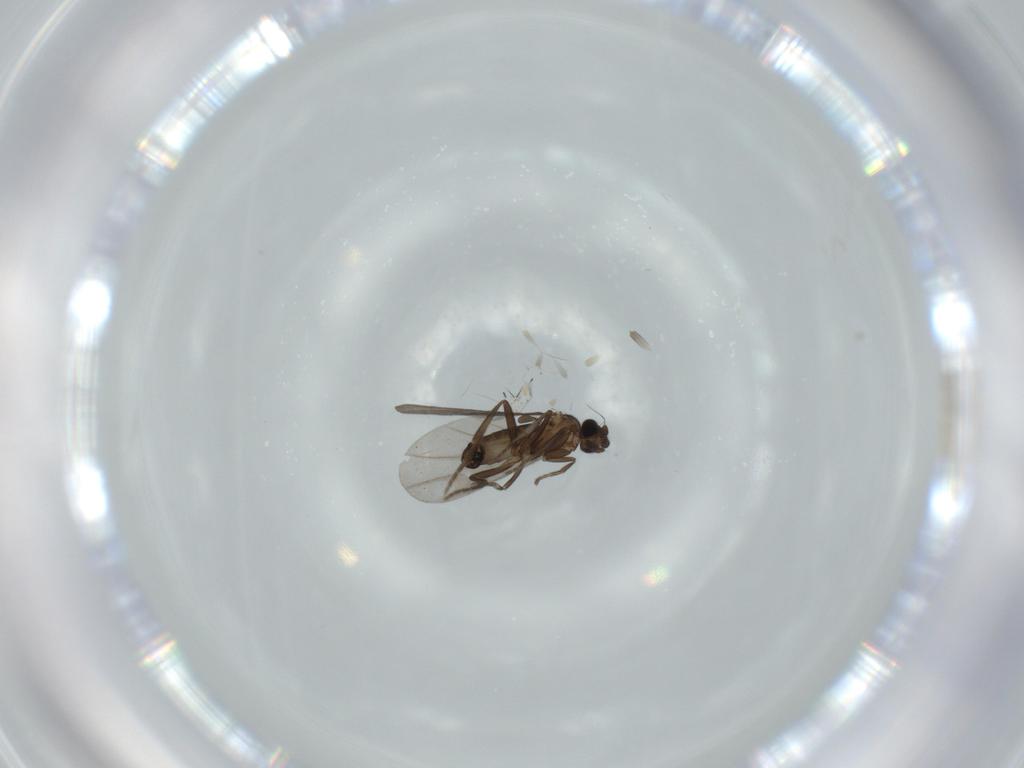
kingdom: Animalia
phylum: Arthropoda
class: Insecta
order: Diptera
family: Phoridae
